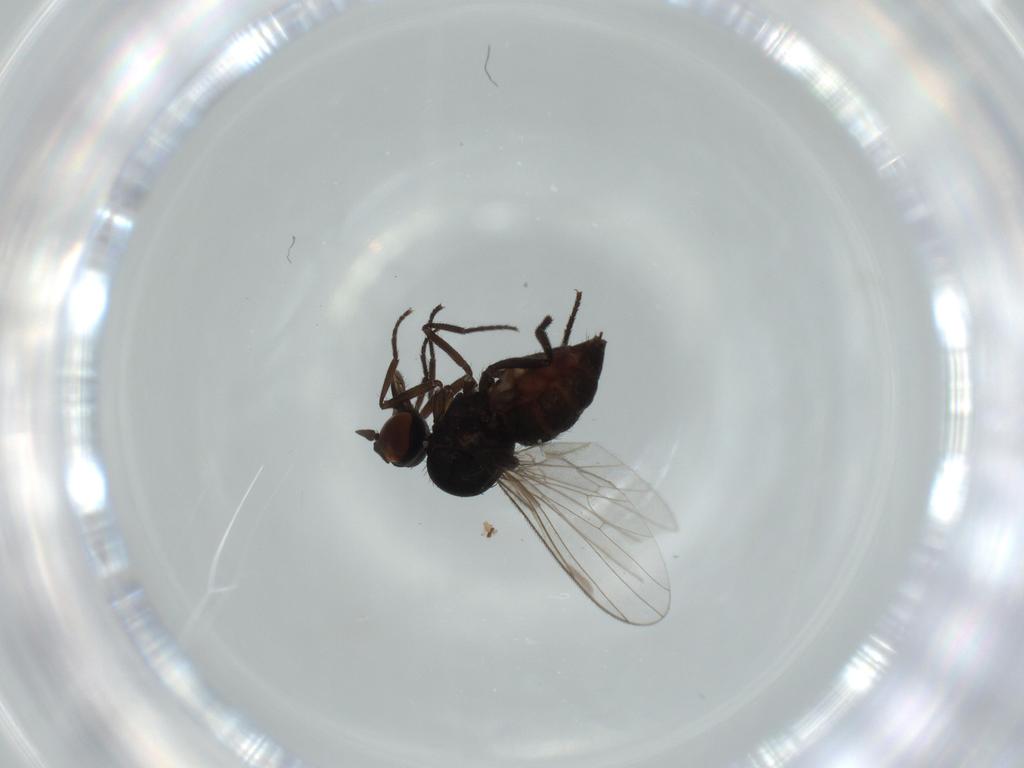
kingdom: Animalia
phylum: Arthropoda
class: Insecta
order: Diptera
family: Dolichopodidae
